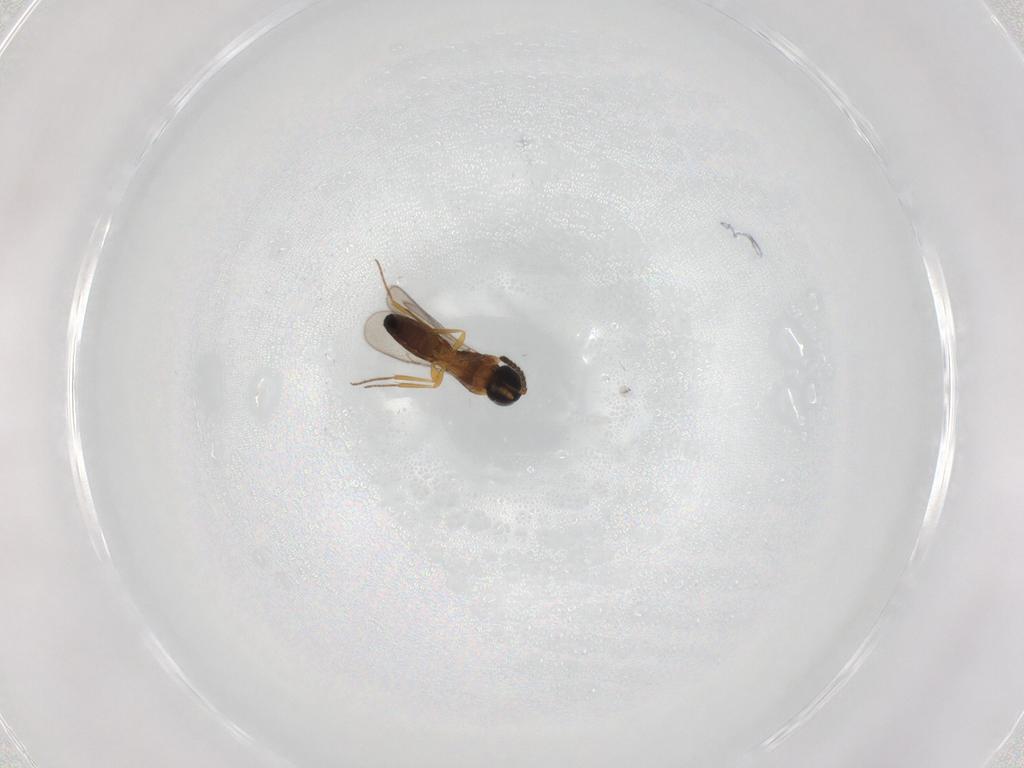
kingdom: Animalia
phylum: Arthropoda
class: Insecta
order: Hymenoptera
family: Scelionidae
